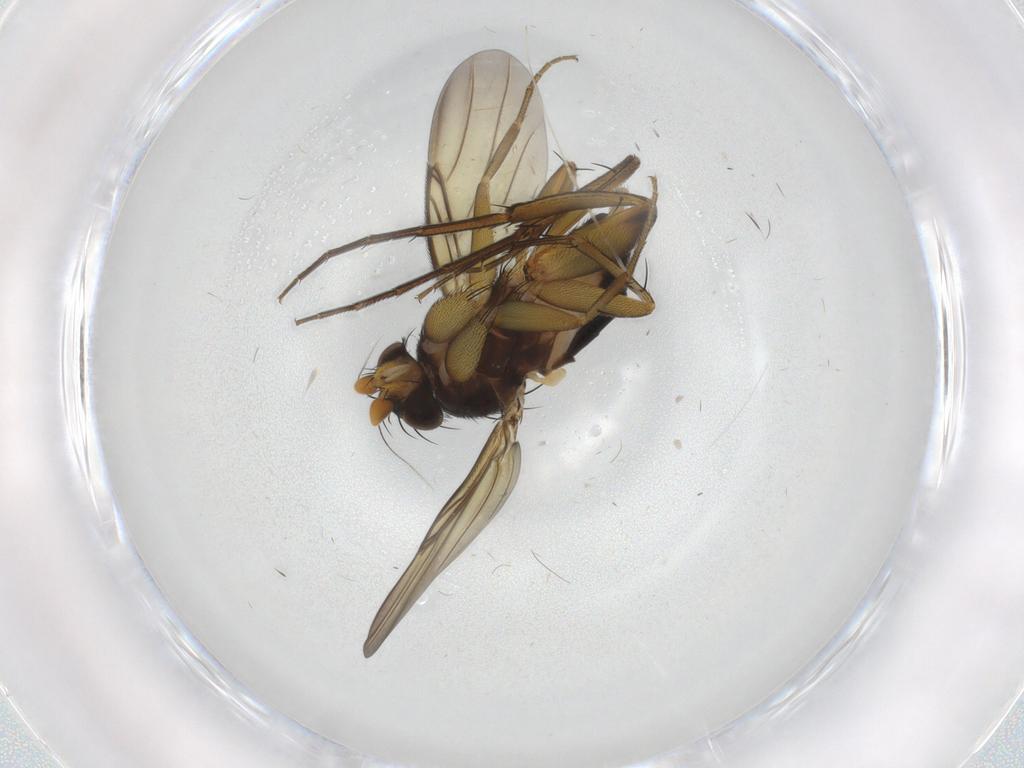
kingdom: Animalia
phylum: Arthropoda
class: Insecta
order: Diptera
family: Phoridae
